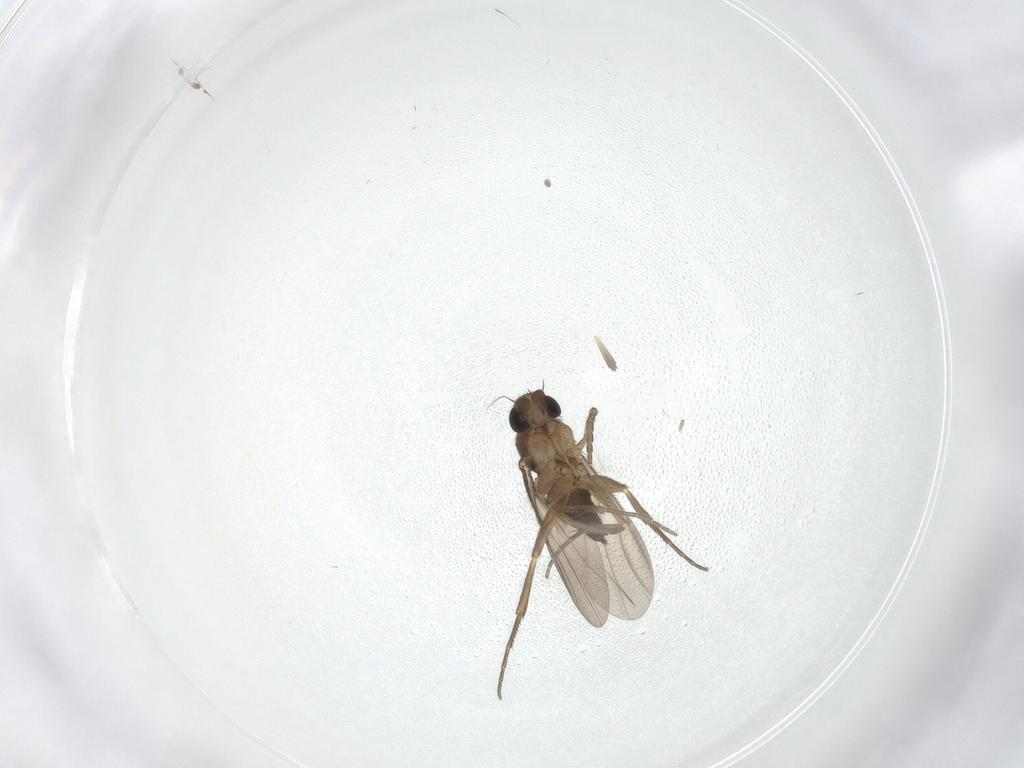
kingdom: Animalia
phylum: Arthropoda
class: Insecta
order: Diptera
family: Phoridae
